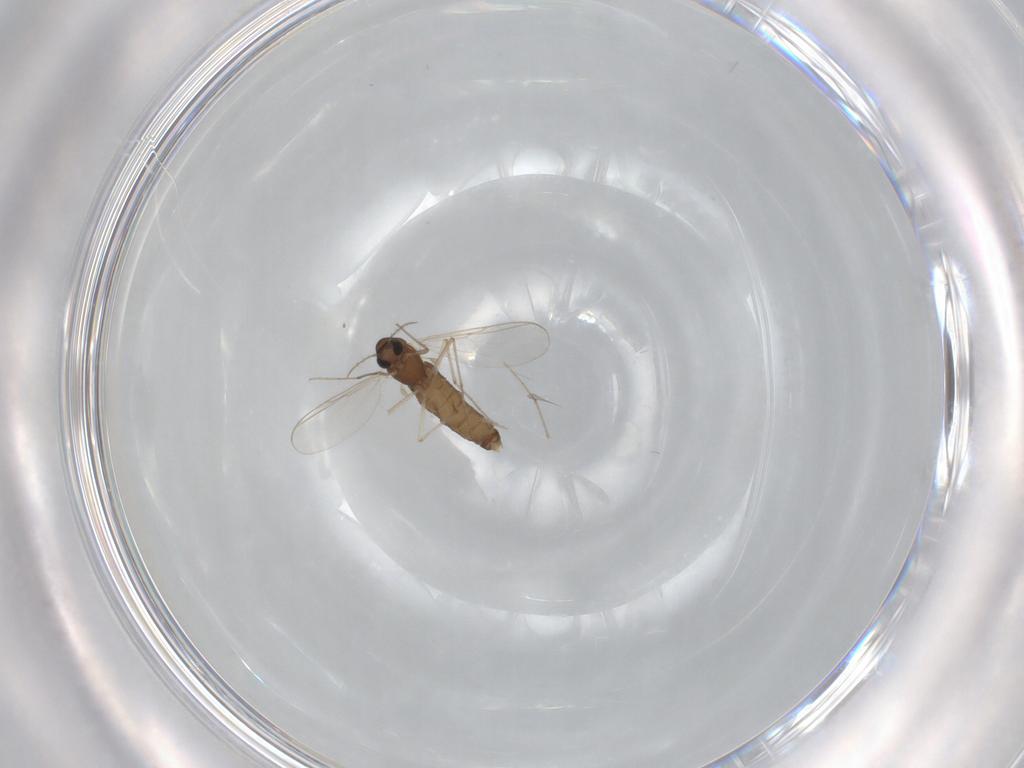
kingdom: Animalia
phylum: Arthropoda
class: Insecta
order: Diptera
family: Chironomidae
